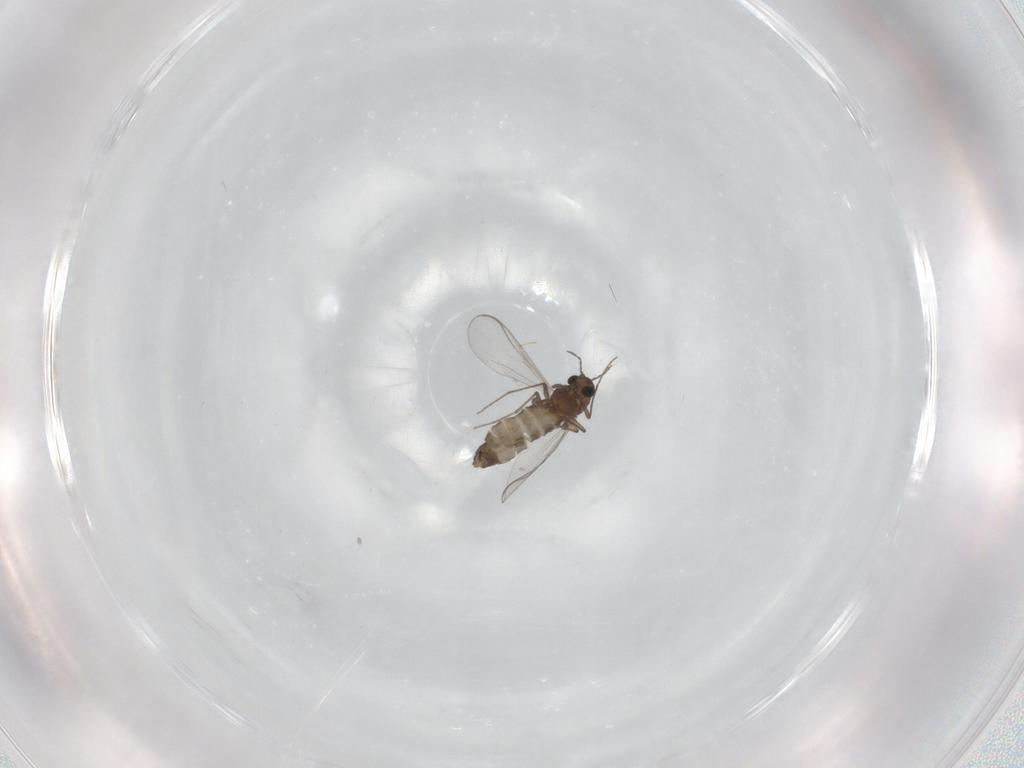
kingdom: Animalia
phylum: Arthropoda
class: Insecta
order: Diptera
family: Chironomidae
